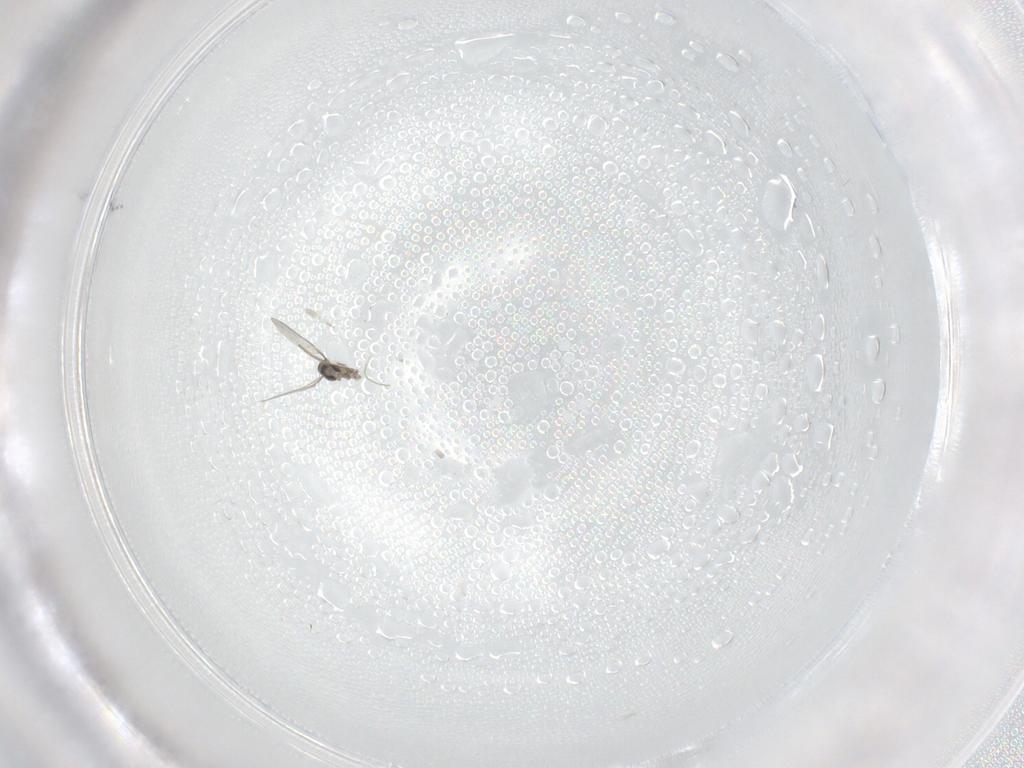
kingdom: Animalia
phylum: Arthropoda
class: Insecta
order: Diptera
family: Cecidomyiidae
